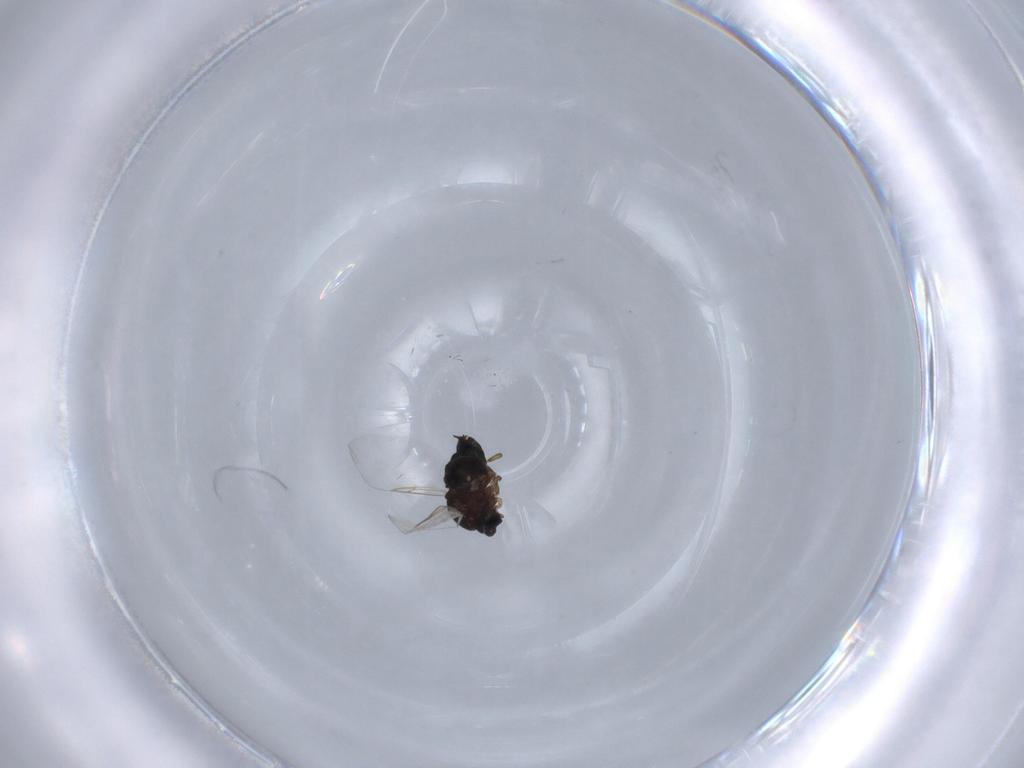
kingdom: Animalia
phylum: Arthropoda
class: Insecta
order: Diptera
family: Scatopsidae
